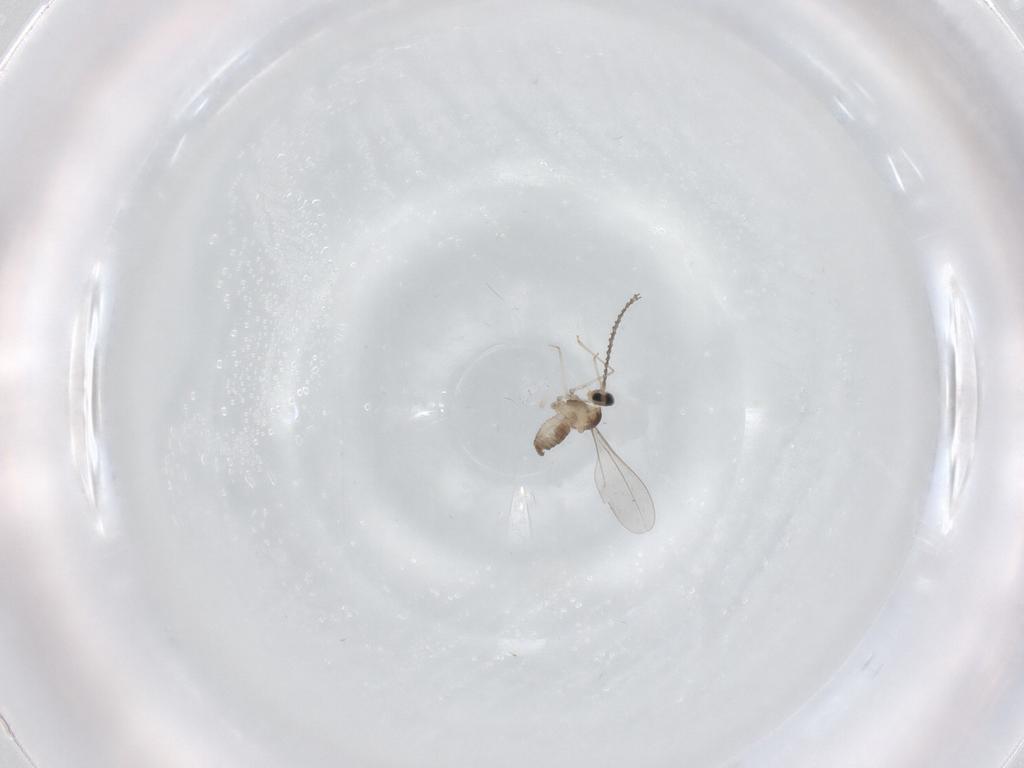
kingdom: Animalia
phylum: Arthropoda
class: Insecta
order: Diptera
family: Cecidomyiidae
